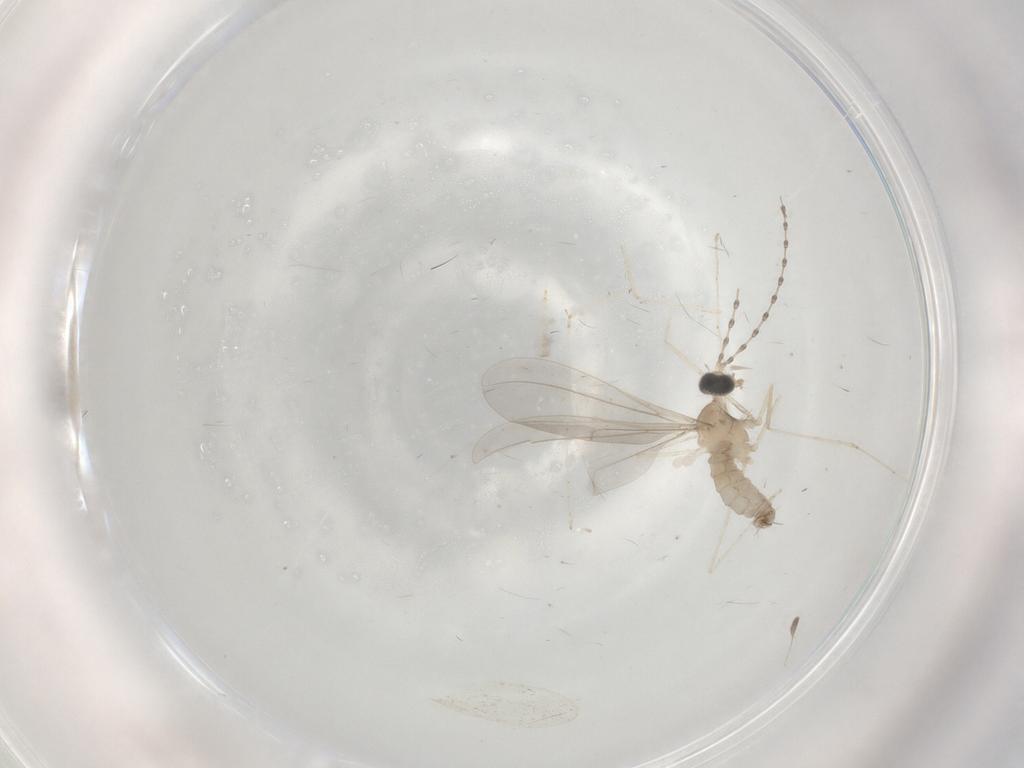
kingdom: Animalia
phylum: Arthropoda
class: Insecta
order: Diptera
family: Cecidomyiidae
